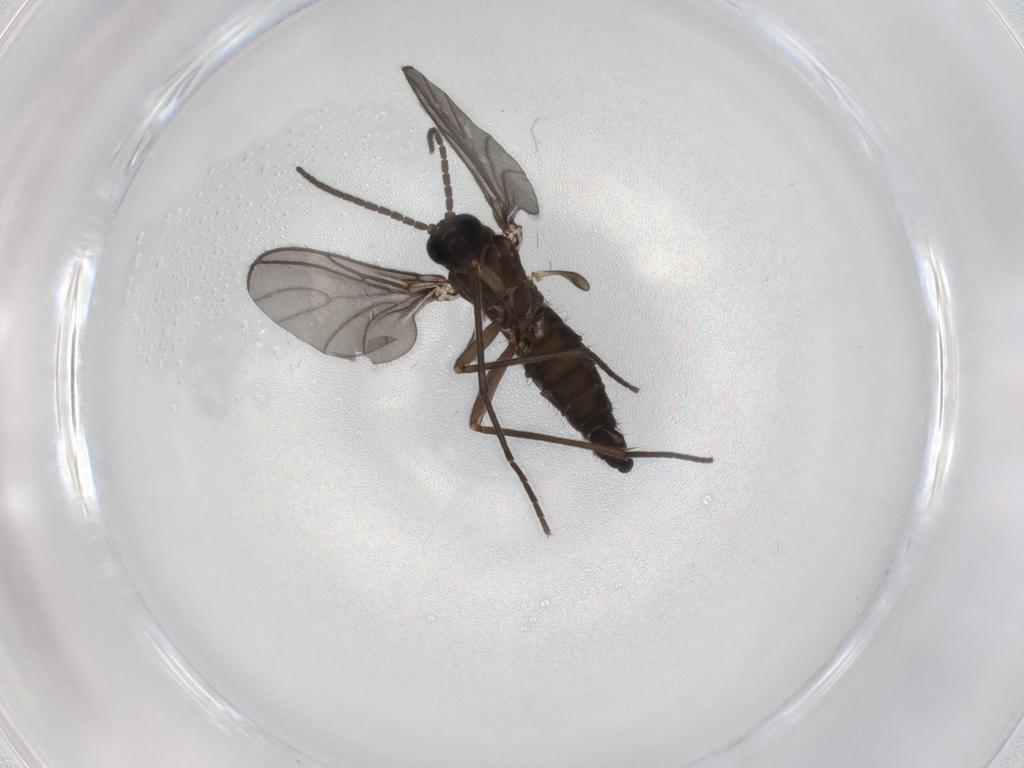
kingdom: Animalia
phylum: Arthropoda
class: Insecta
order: Diptera
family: Sciaridae
